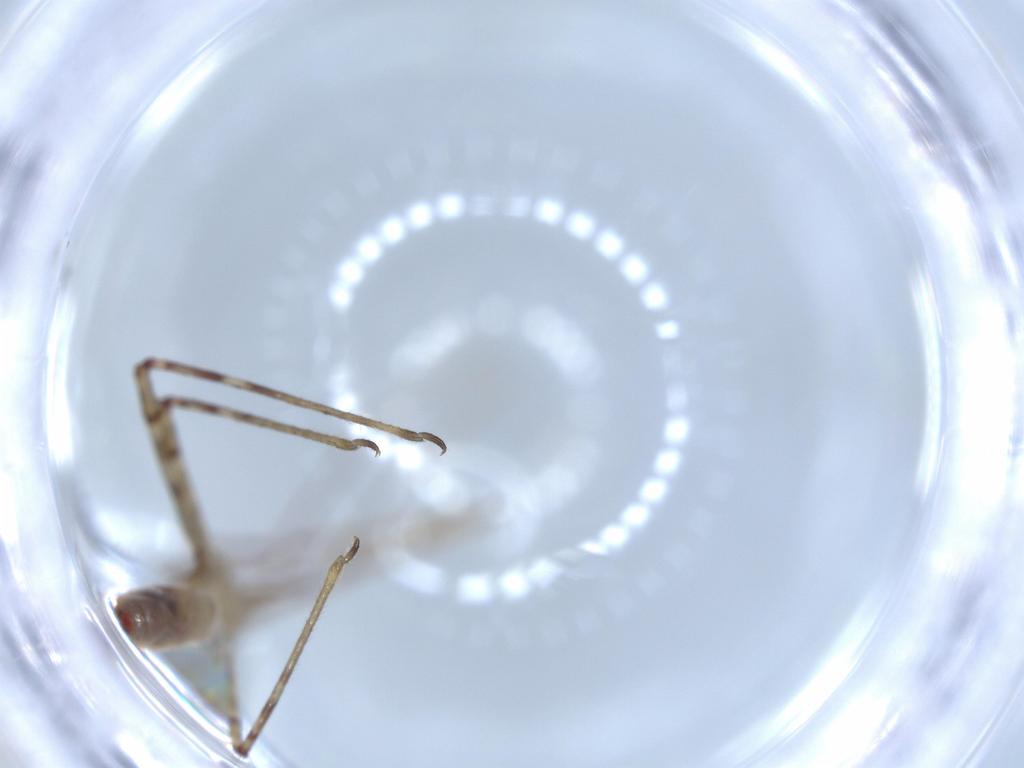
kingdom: Animalia
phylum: Arthropoda
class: Insecta
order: Hemiptera
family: Reduviidae
